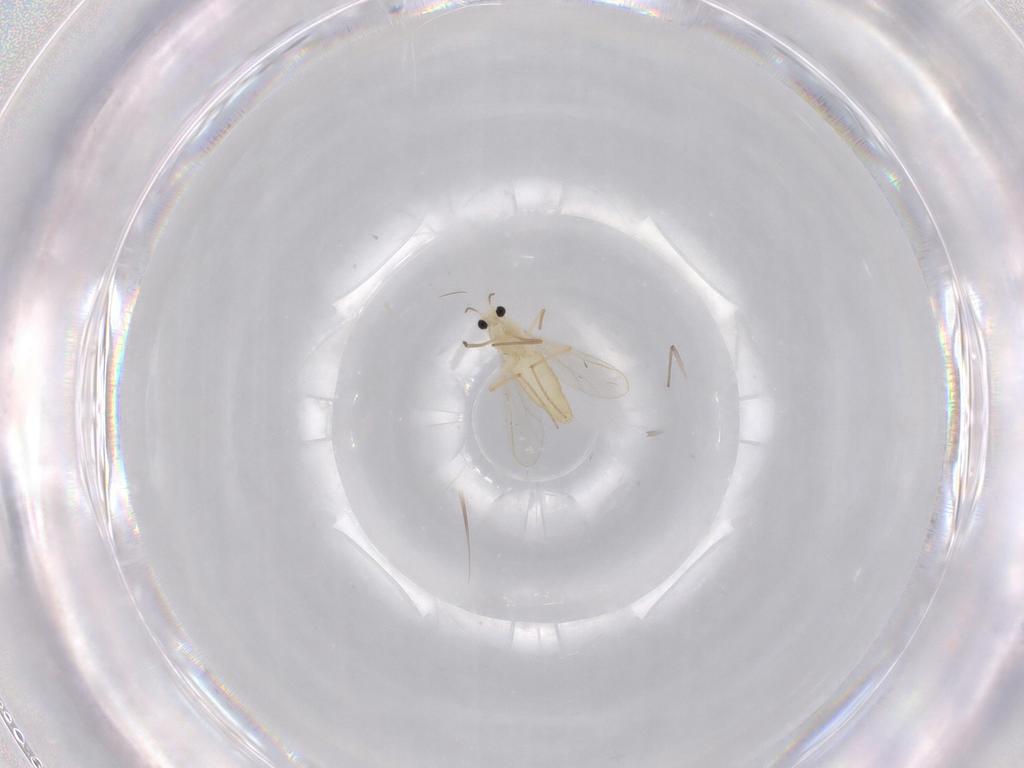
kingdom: Animalia
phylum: Arthropoda
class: Insecta
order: Diptera
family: Chironomidae
